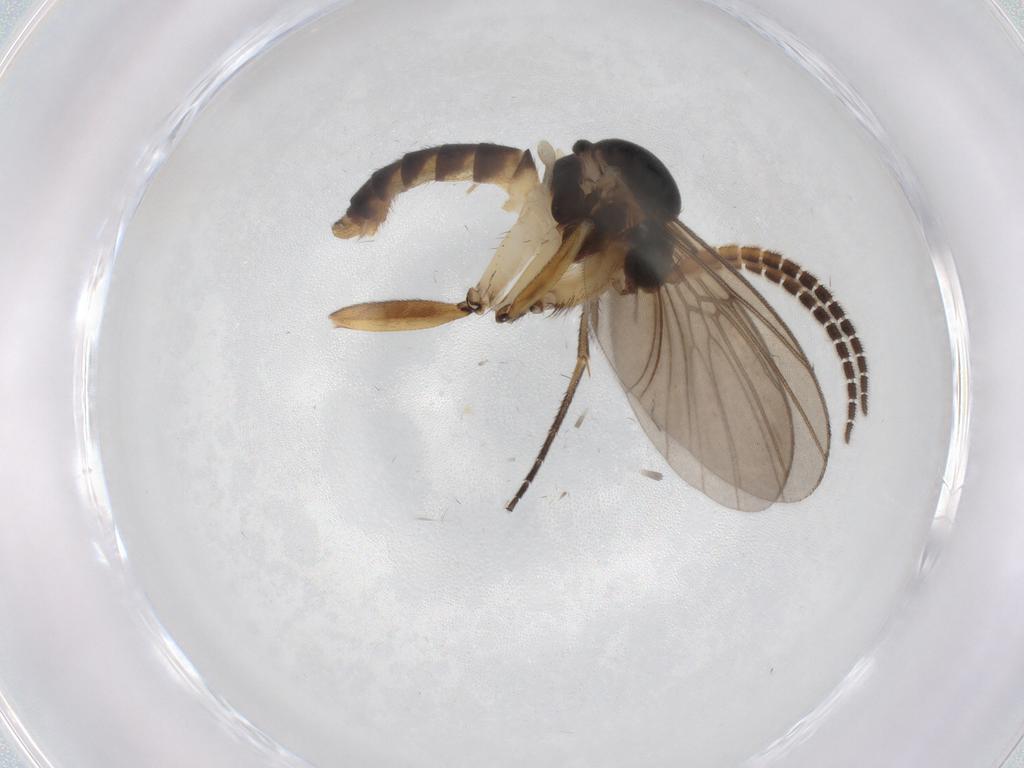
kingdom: Animalia
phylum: Arthropoda
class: Insecta
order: Diptera
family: Mycetophilidae
